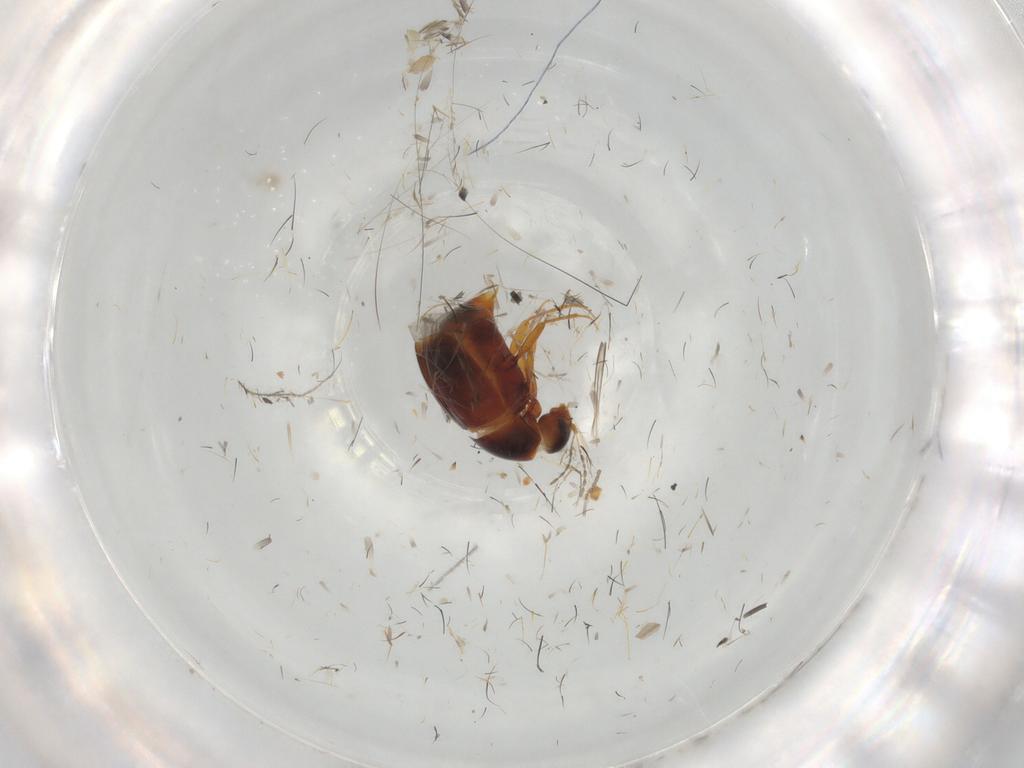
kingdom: Animalia
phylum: Arthropoda
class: Insecta
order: Coleoptera
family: Staphylinidae
